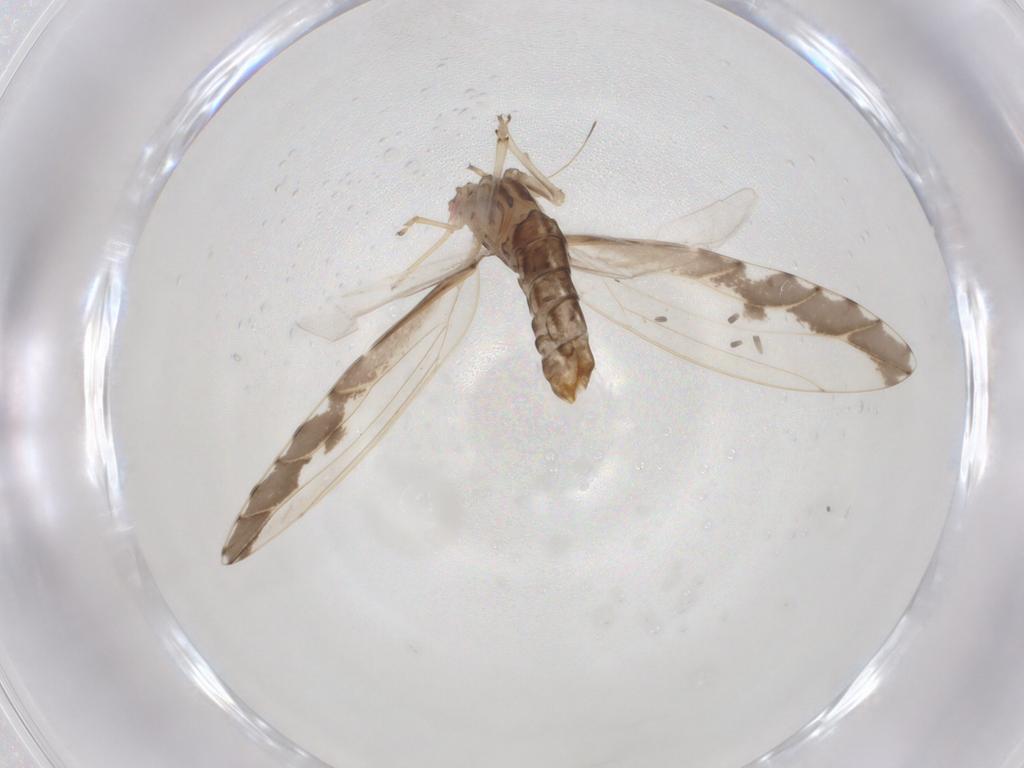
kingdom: Animalia
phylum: Arthropoda
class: Insecta
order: Hemiptera
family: Psylloidea_incertae_sedis
